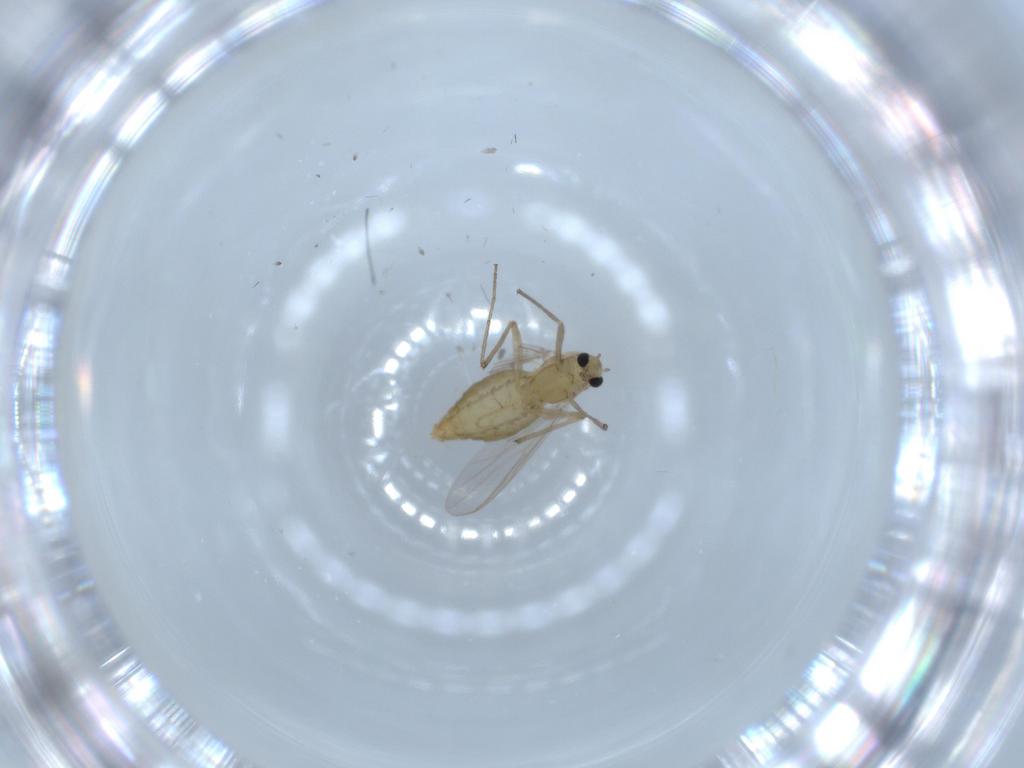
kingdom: Animalia
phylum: Arthropoda
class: Insecta
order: Diptera
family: Chironomidae
